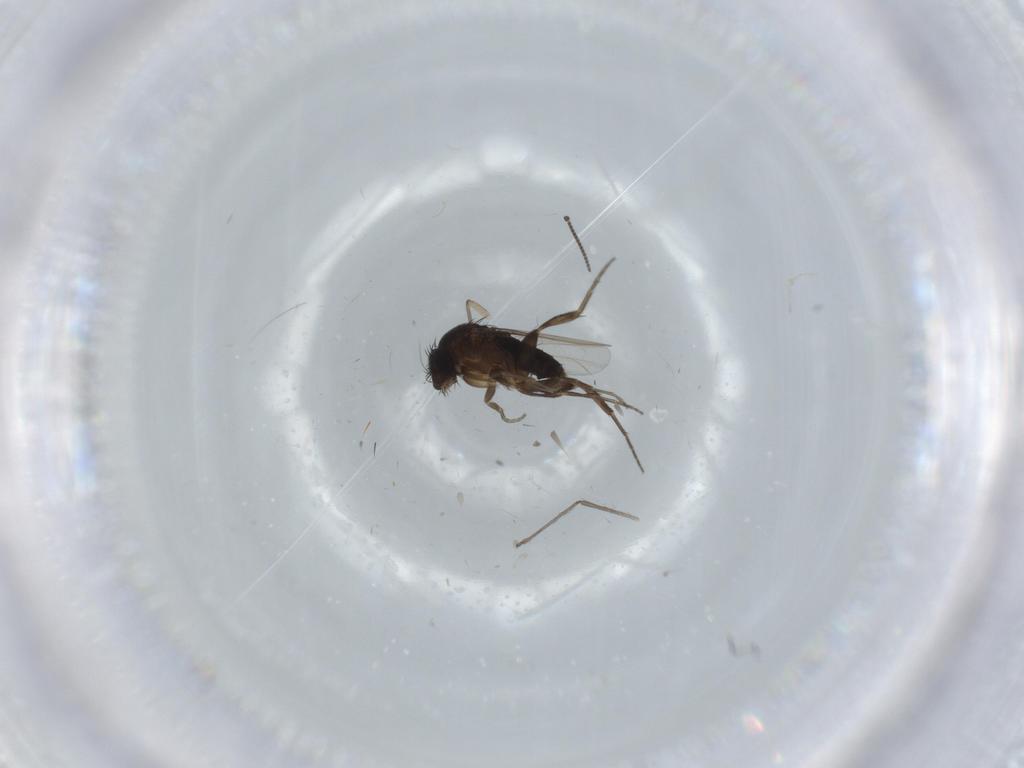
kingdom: Animalia
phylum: Arthropoda
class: Insecta
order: Diptera
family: Phoridae
